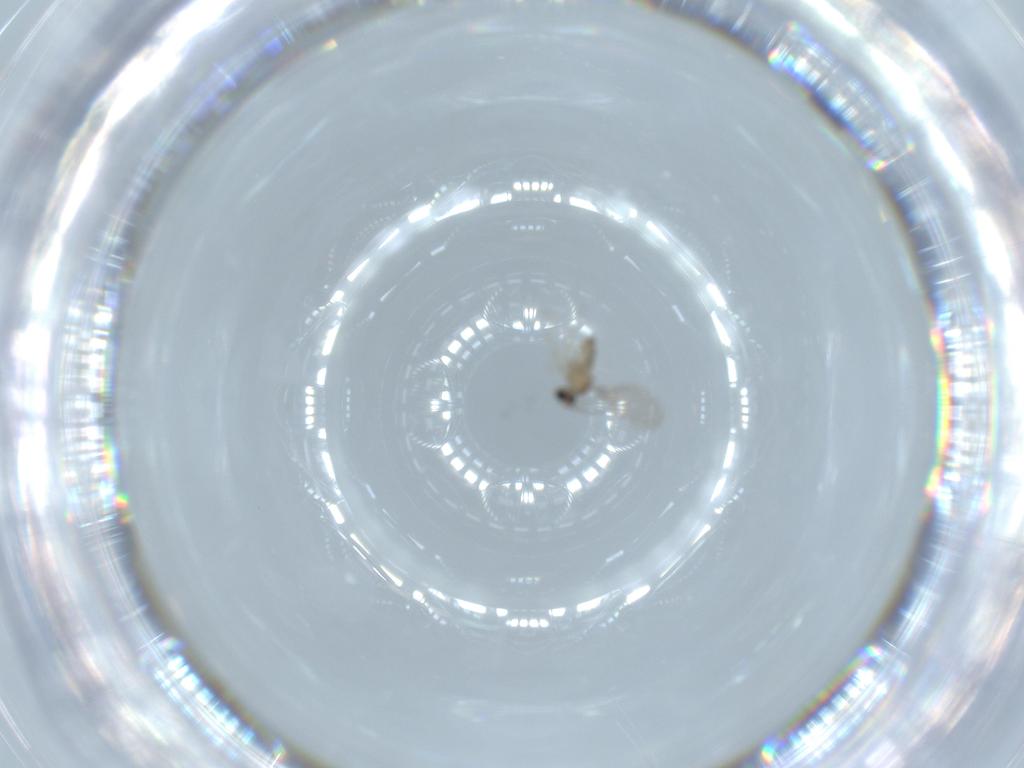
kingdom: Animalia
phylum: Arthropoda
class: Insecta
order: Diptera
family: Cecidomyiidae
